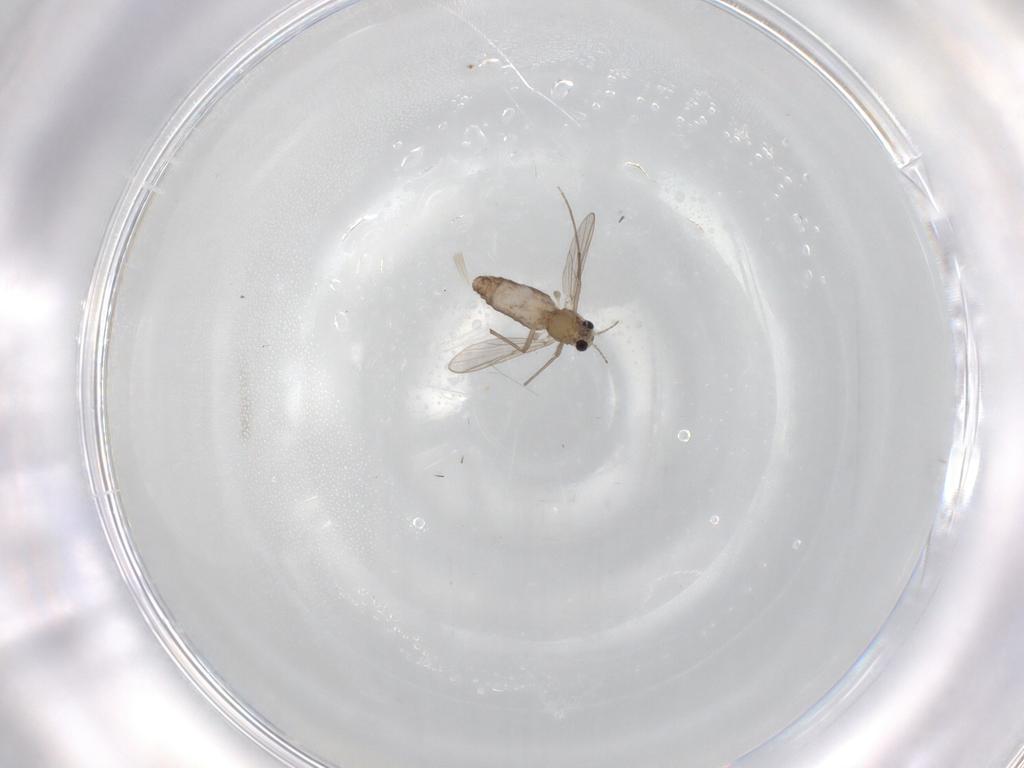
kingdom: Animalia
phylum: Arthropoda
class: Insecta
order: Diptera
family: Chironomidae
